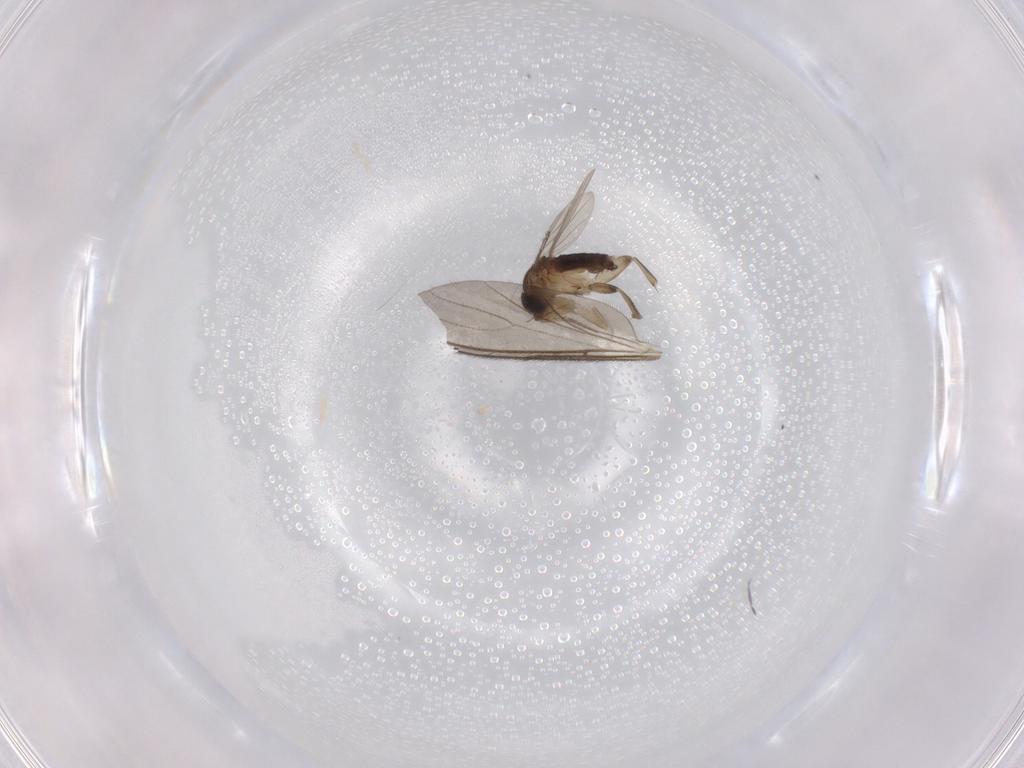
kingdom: Animalia
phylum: Arthropoda
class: Insecta
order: Diptera
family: Phoridae
